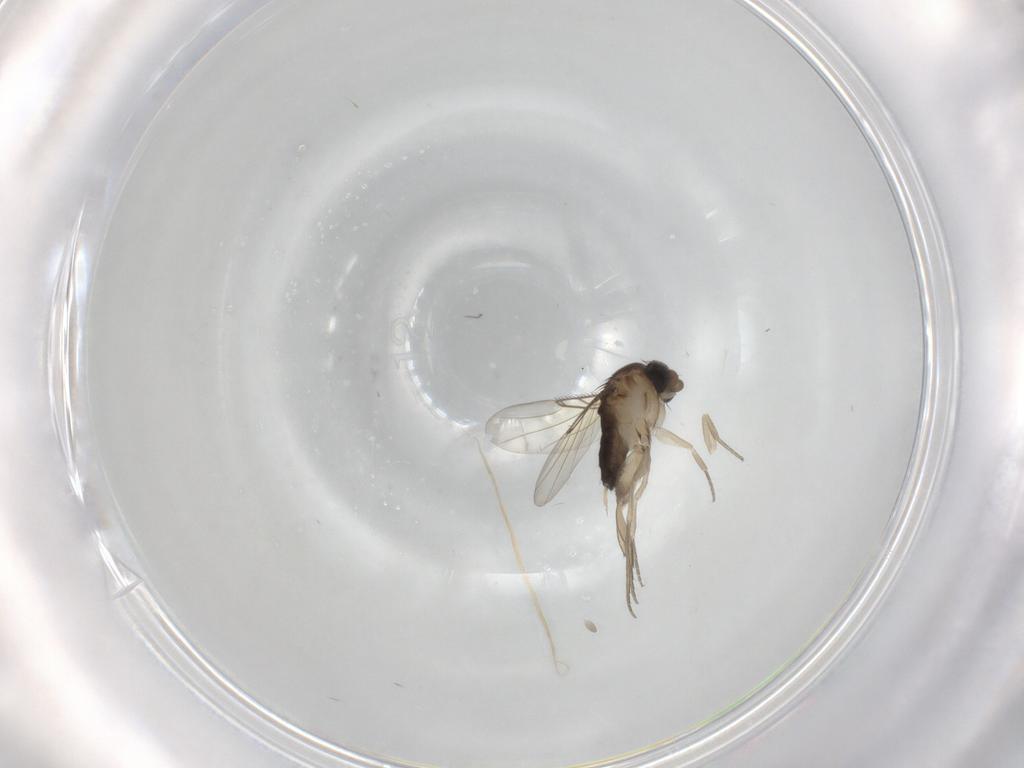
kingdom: Animalia
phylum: Arthropoda
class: Insecta
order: Diptera
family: Phoridae
